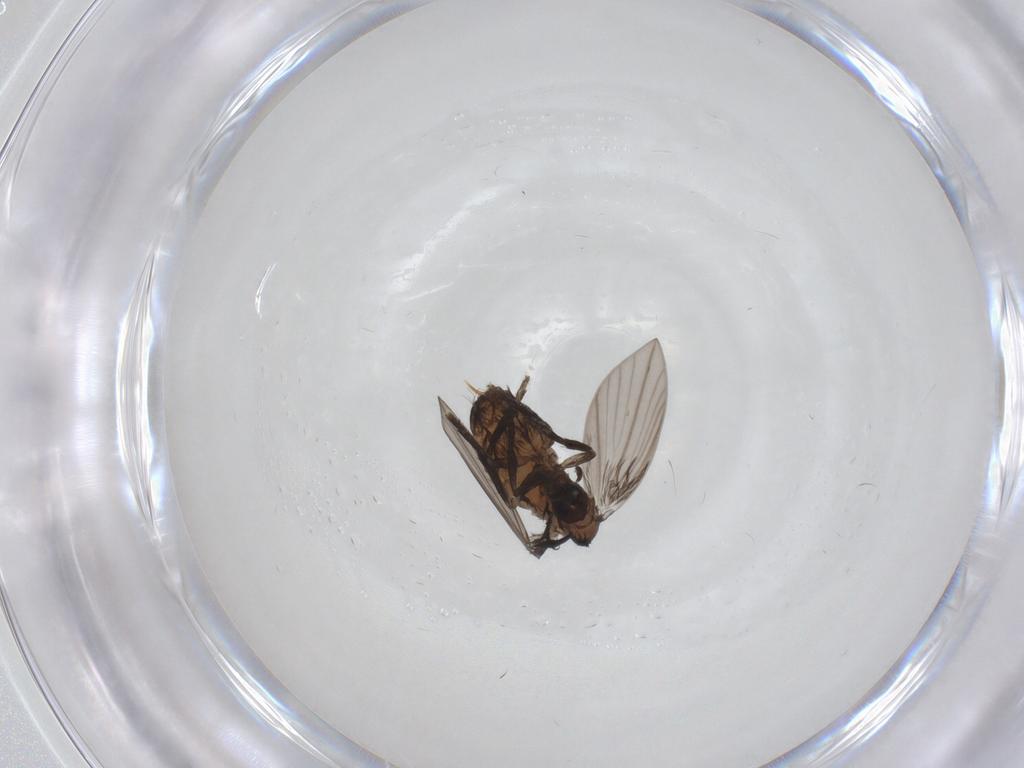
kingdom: Animalia
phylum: Arthropoda
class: Insecta
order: Diptera
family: Psychodidae
